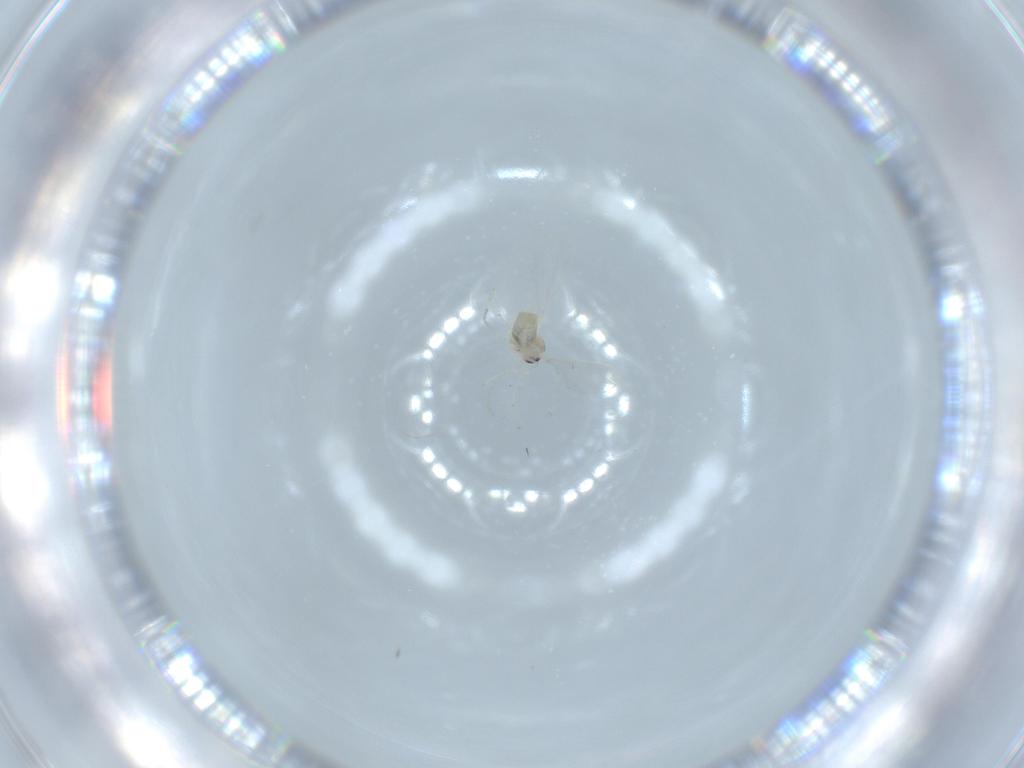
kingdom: Animalia
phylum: Arthropoda
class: Insecta
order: Diptera
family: Cecidomyiidae
